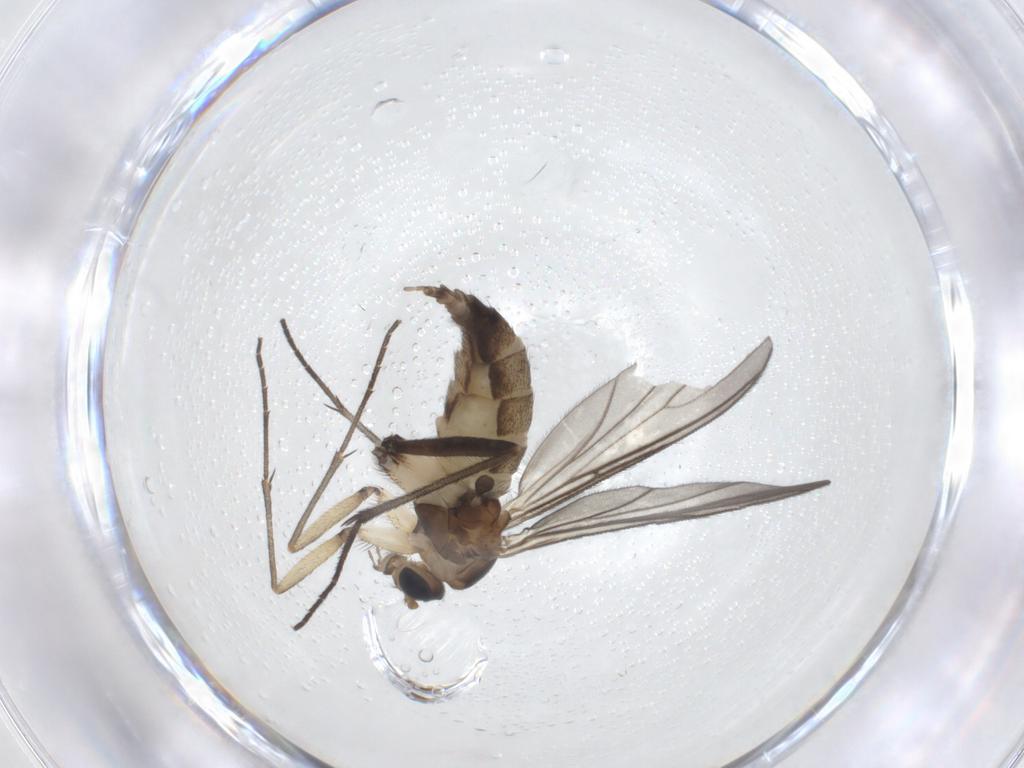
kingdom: Animalia
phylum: Arthropoda
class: Insecta
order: Diptera
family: Sciaridae
